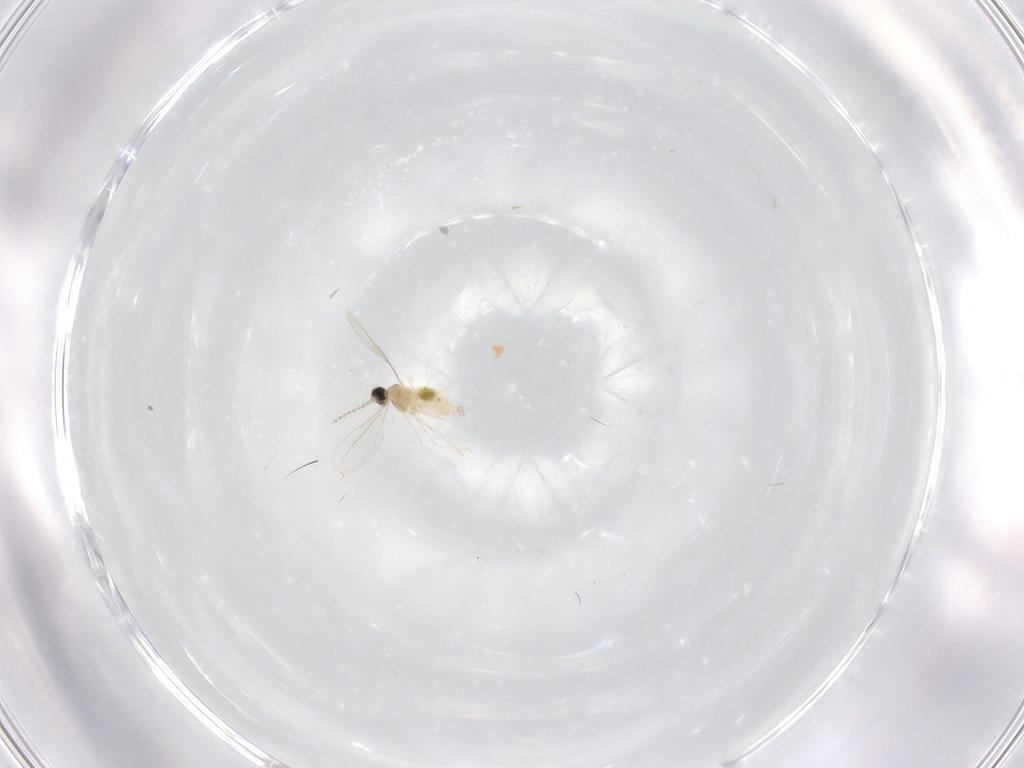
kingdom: Animalia
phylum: Arthropoda
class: Insecta
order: Diptera
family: Cecidomyiidae
